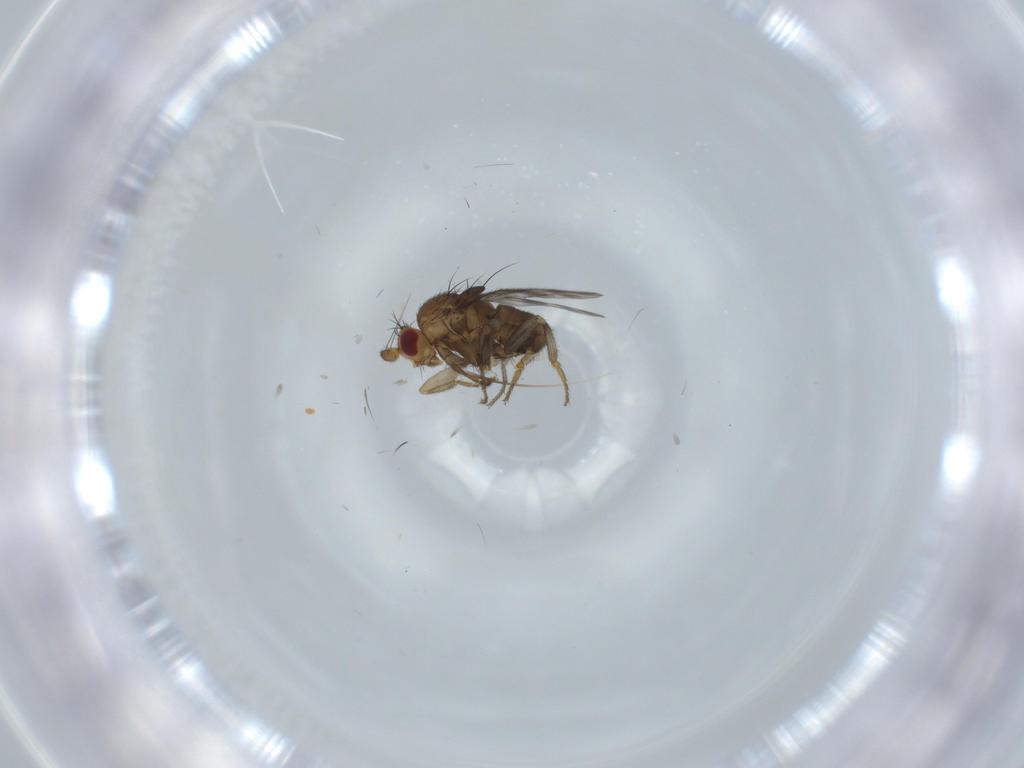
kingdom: Animalia
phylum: Arthropoda
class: Insecta
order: Diptera
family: Sphaeroceridae
